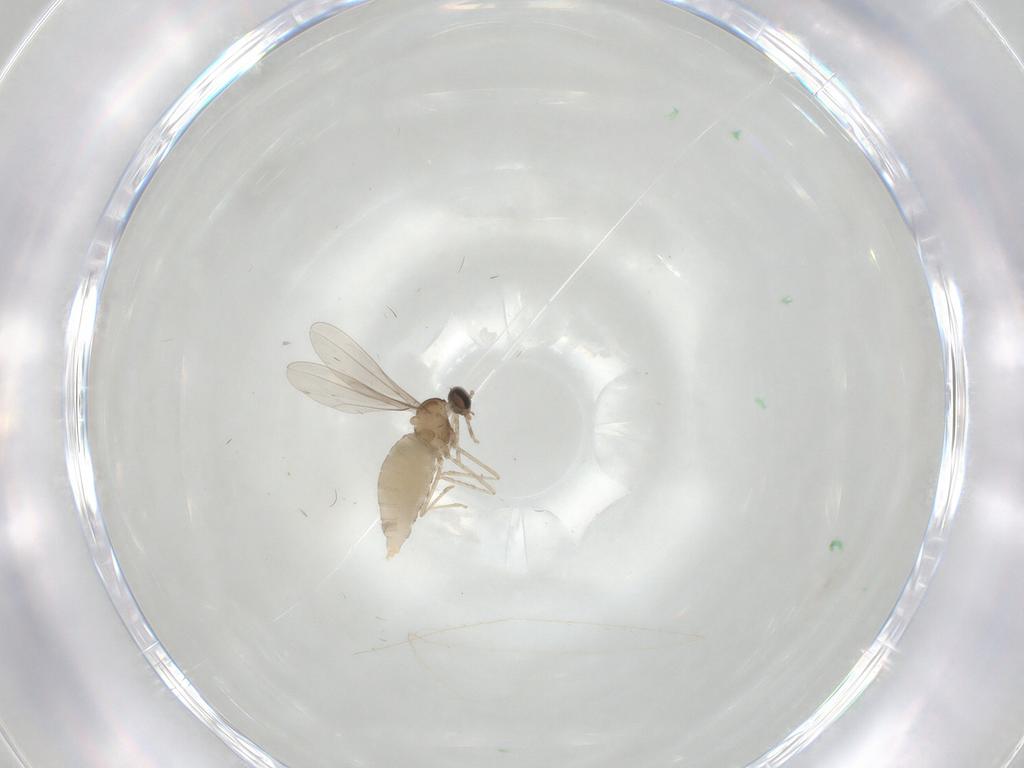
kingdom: Animalia
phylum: Arthropoda
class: Insecta
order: Diptera
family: Cecidomyiidae
